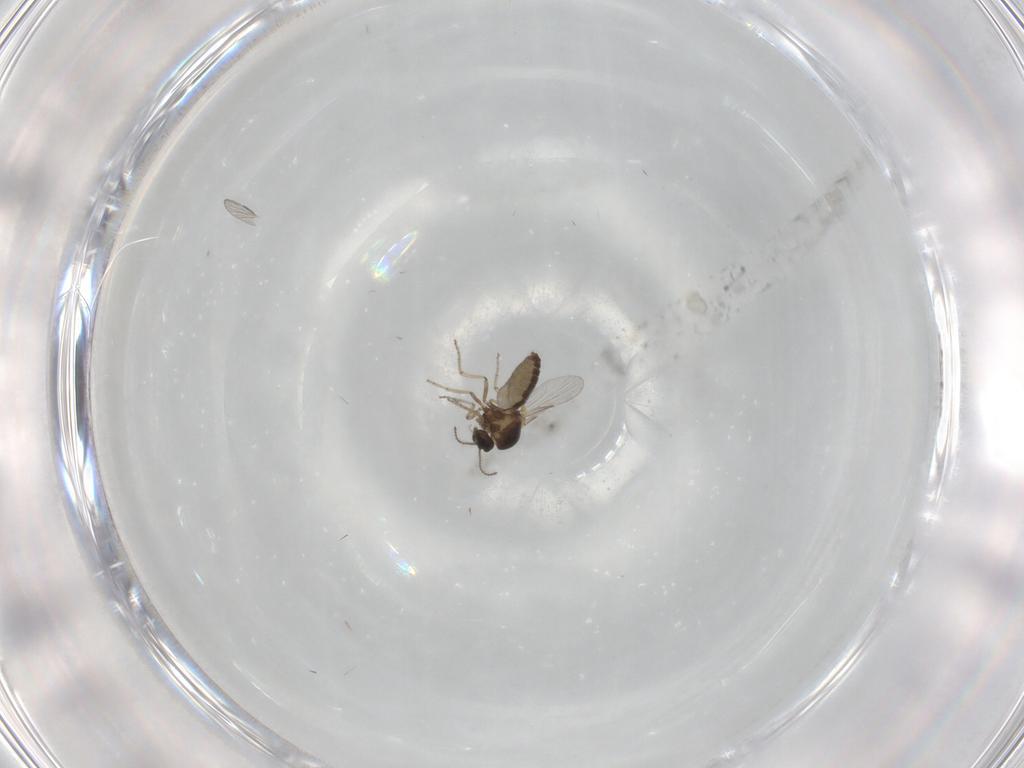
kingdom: Animalia
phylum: Arthropoda
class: Insecta
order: Diptera
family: Ceratopogonidae
